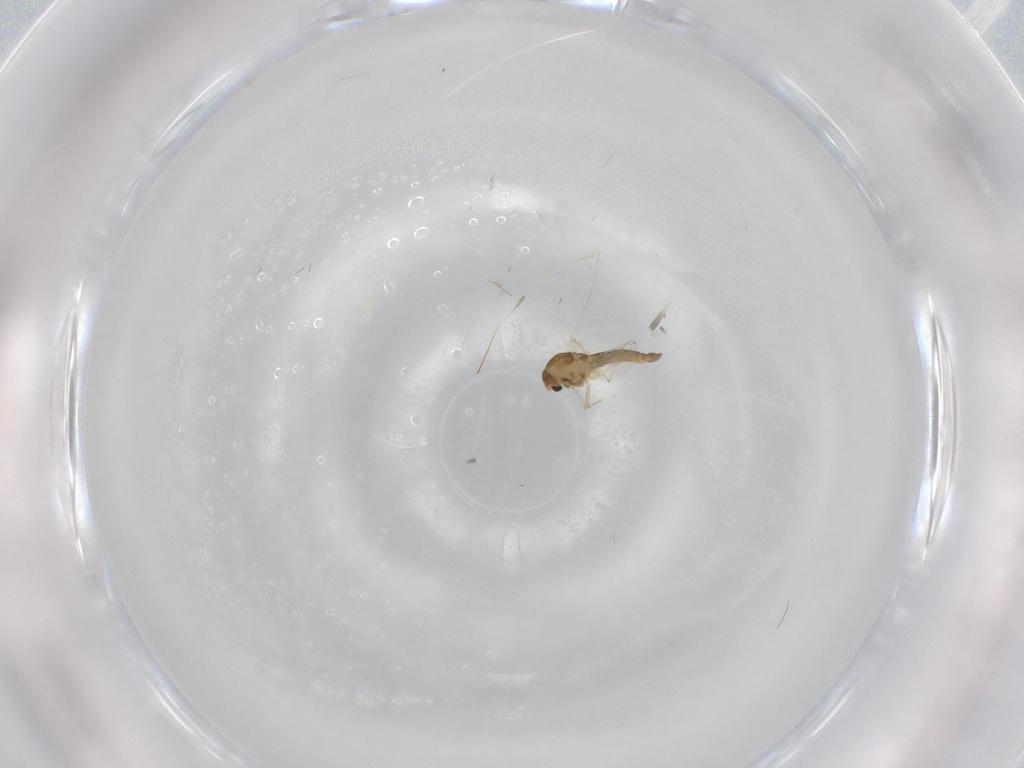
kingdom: Animalia
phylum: Arthropoda
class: Insecta
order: Diptera
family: Chironomidae
